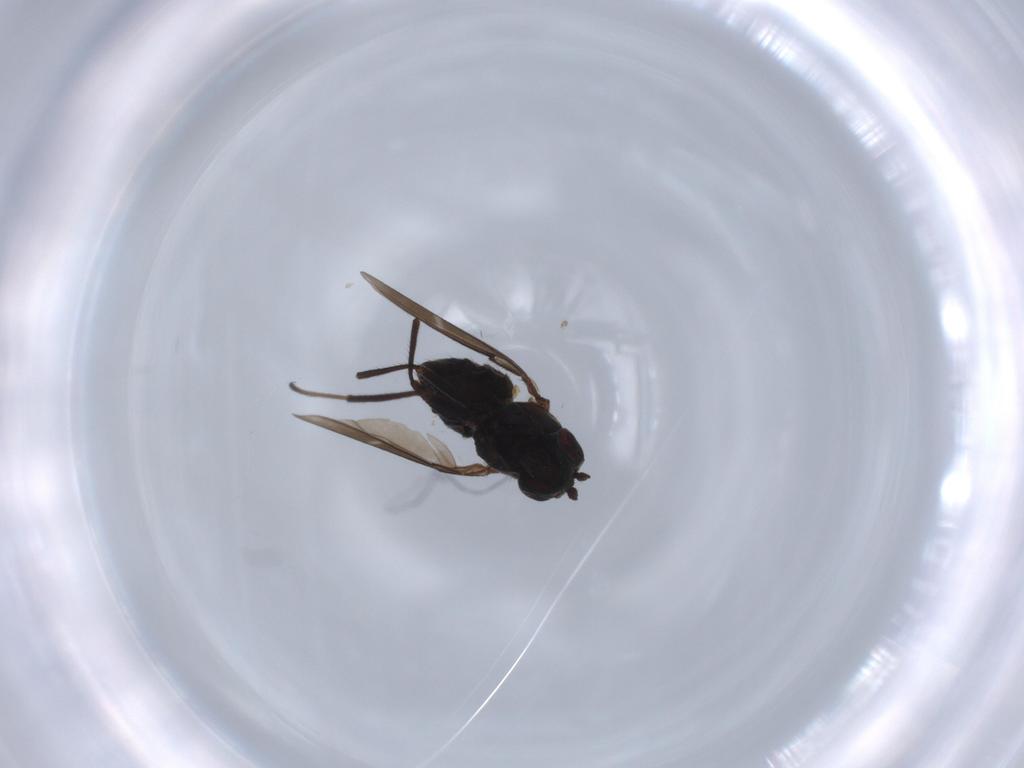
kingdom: Animalia
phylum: Arthropoda
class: Insecta
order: Diptera
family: Ephydridae
